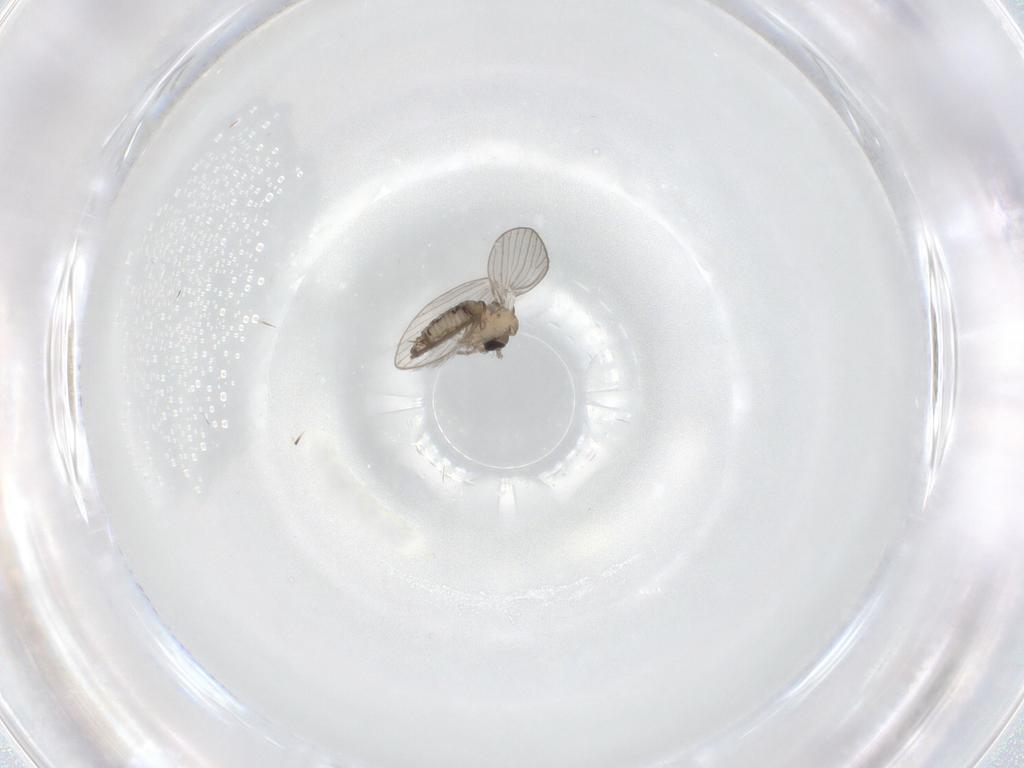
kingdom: Animalia
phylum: Arthropoda
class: Insecta
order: Diptera
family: Psychodidae
